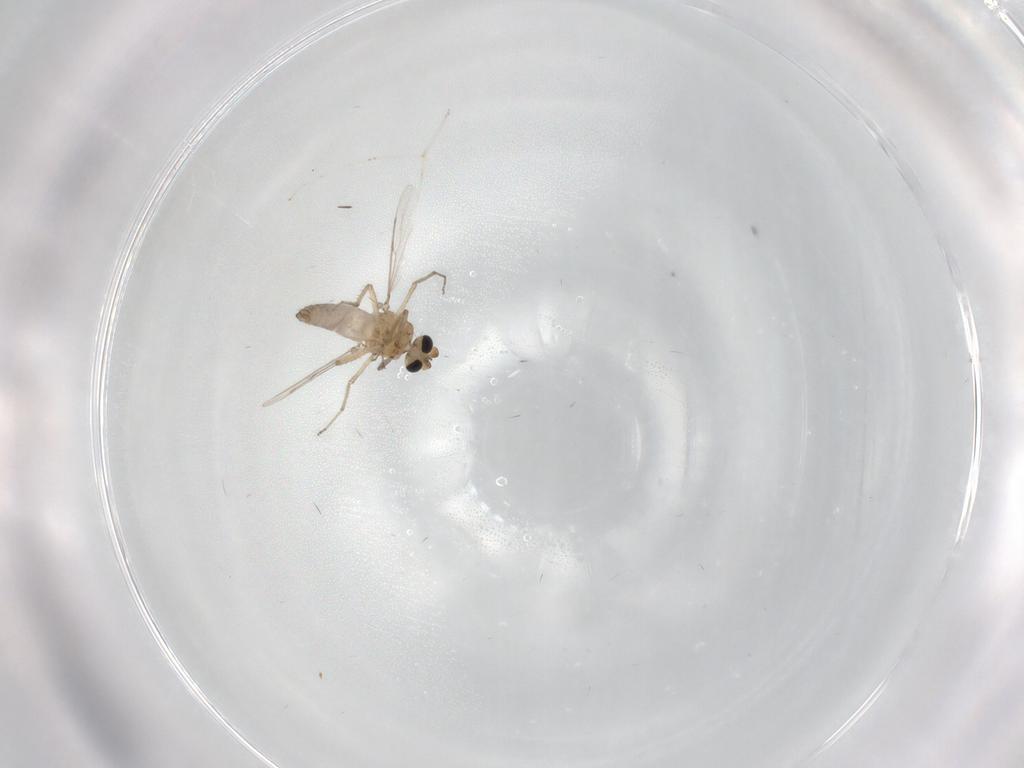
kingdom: Animalia
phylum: Arthropoda
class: Insecta
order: Diptera
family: Cecidomyiidae
